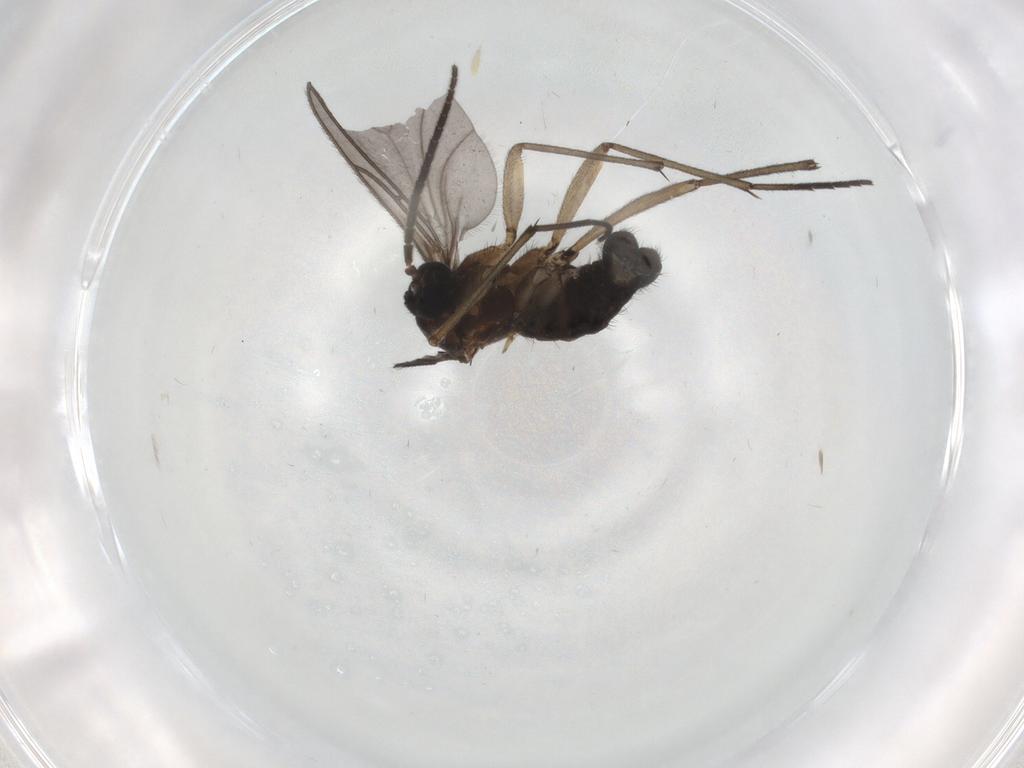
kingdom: Animalia
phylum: Arthropoda
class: Insecta
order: Diptera
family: Sciaridae
